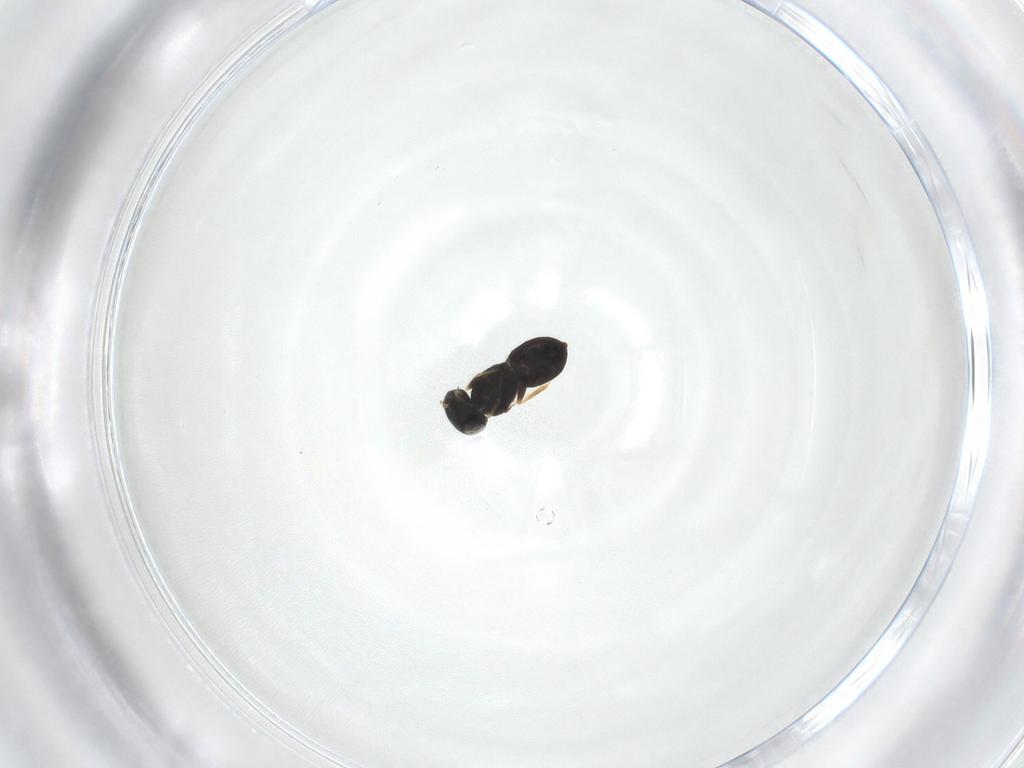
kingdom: Animalia
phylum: Arthropoda
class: Insecta
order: Hymenoptera
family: Scelionidae
